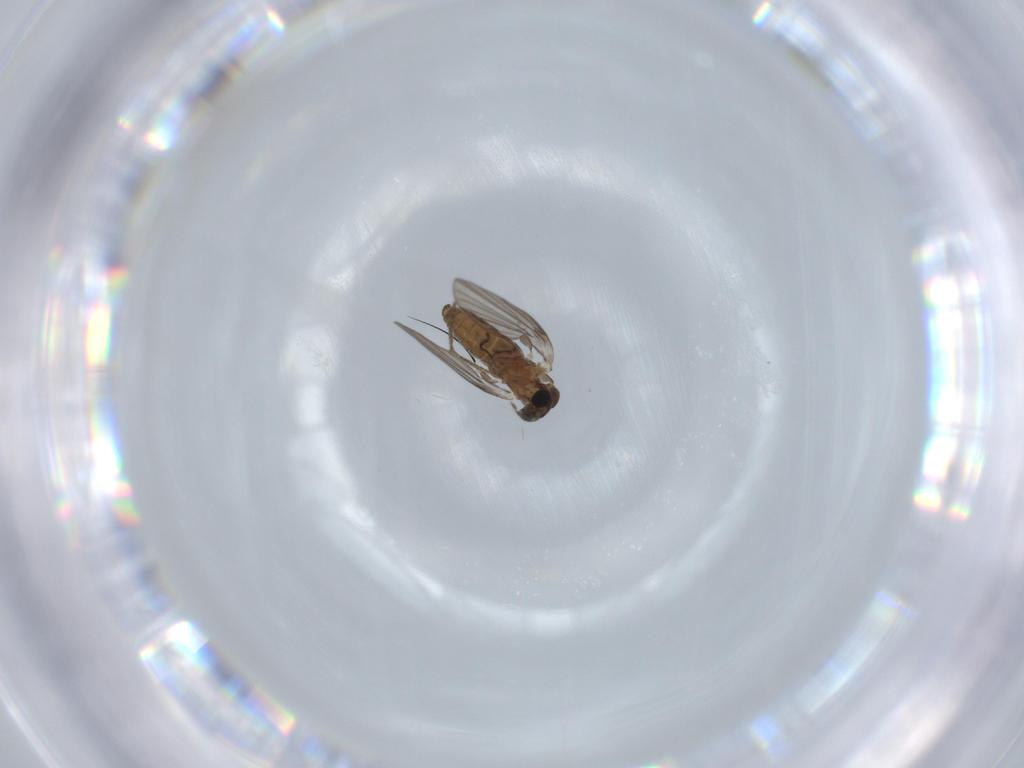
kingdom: Animalia
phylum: Arthropoda
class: Insecta
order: Diptera
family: Psychodidae
